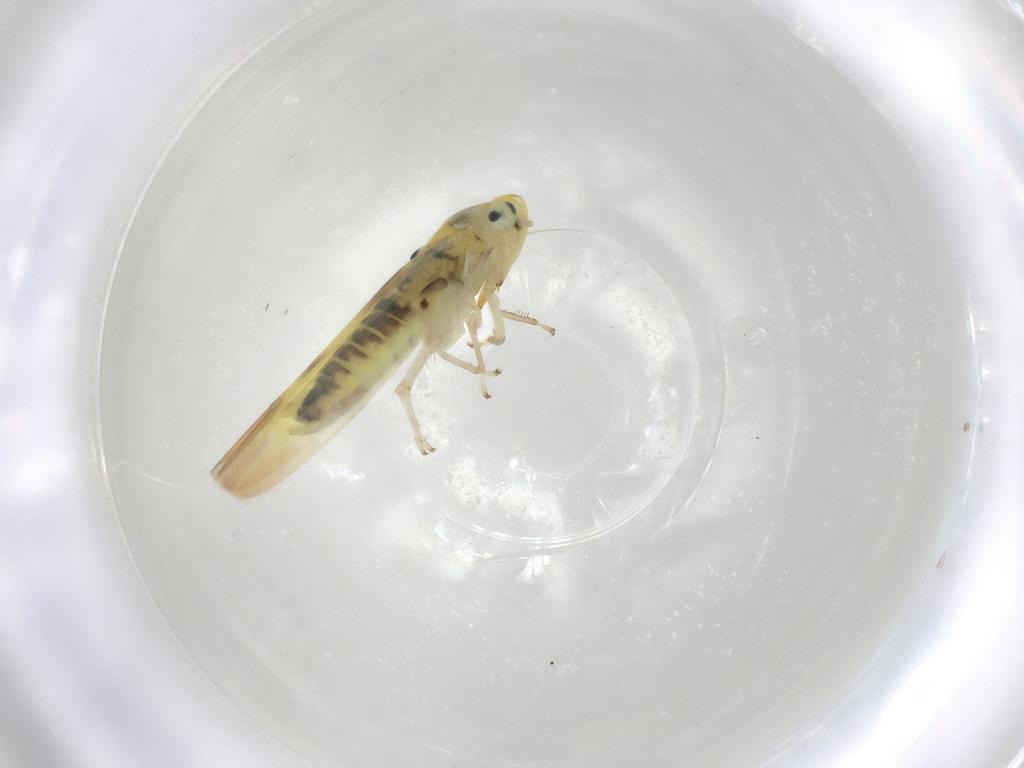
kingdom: Animalia
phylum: Arthropoda
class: Insecta
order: Hemiptera
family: Cicadellidae
